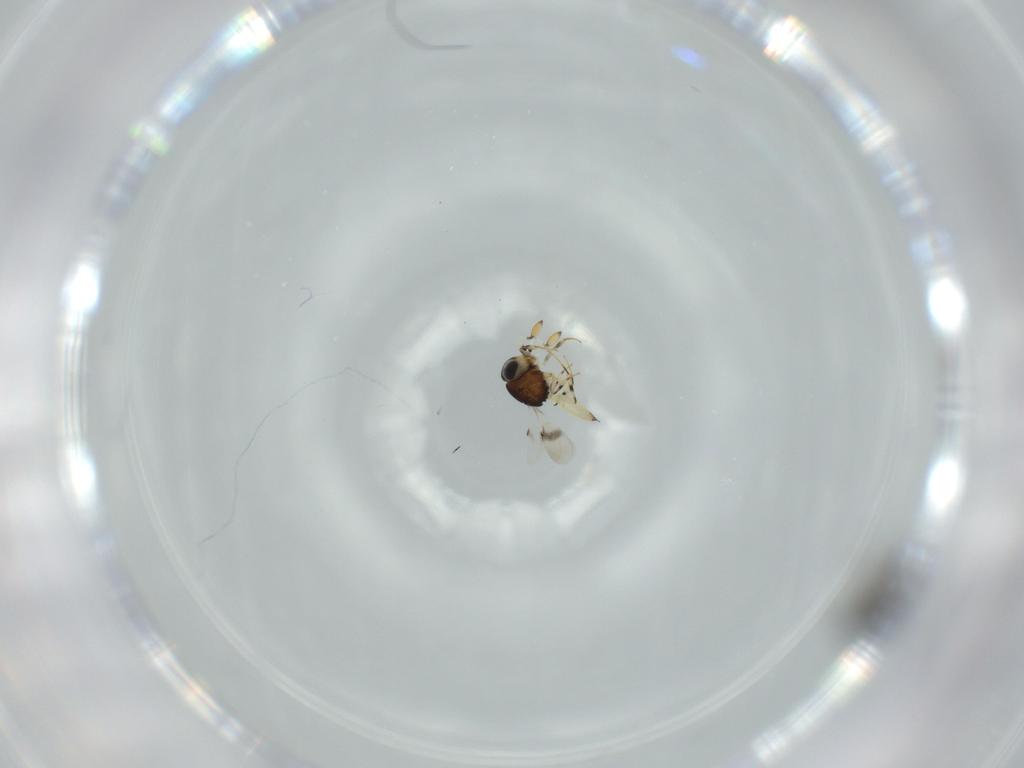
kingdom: Animalia
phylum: Arthropoda
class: Insecta
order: Hymenoptera
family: Scelionidae
